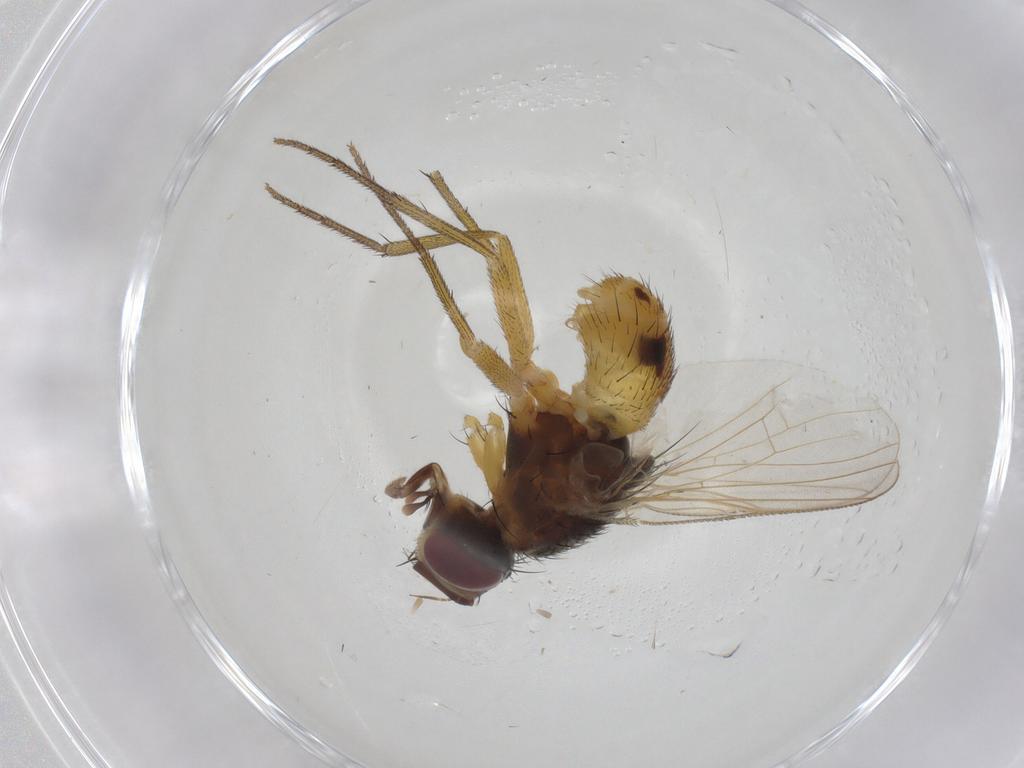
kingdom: Animalia
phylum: Arthropoda
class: Insecta
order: Diptera
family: Muscidae
